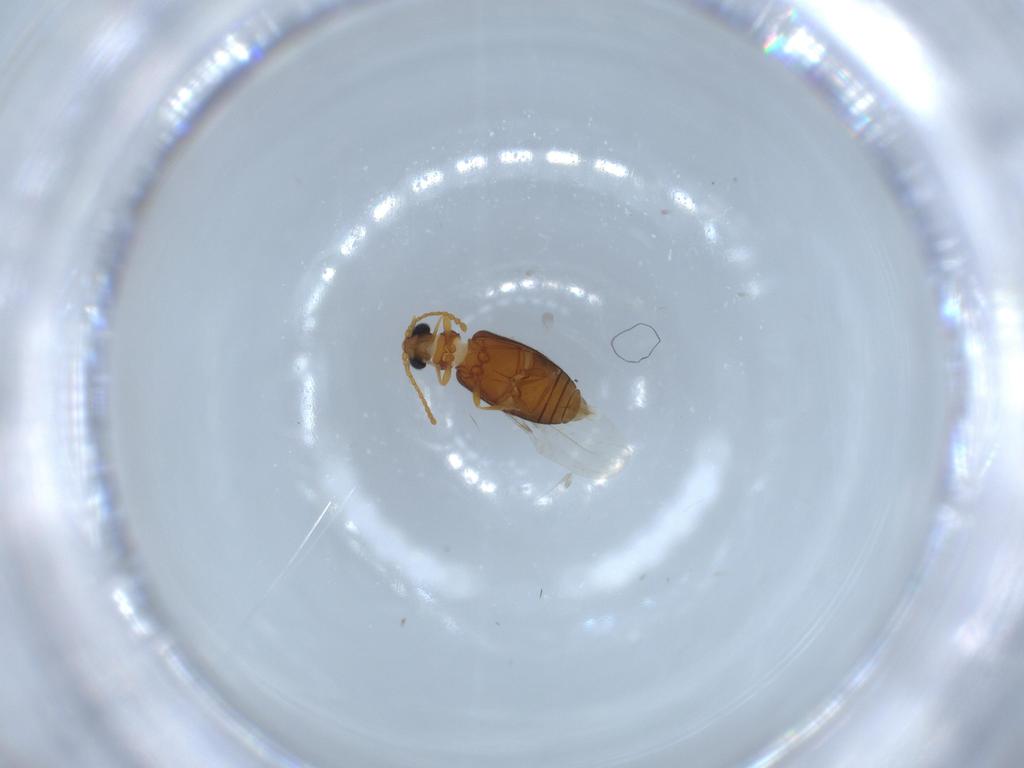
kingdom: Animalia
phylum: Arthropoda
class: Insecta
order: Coleoptera
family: Aderidae
